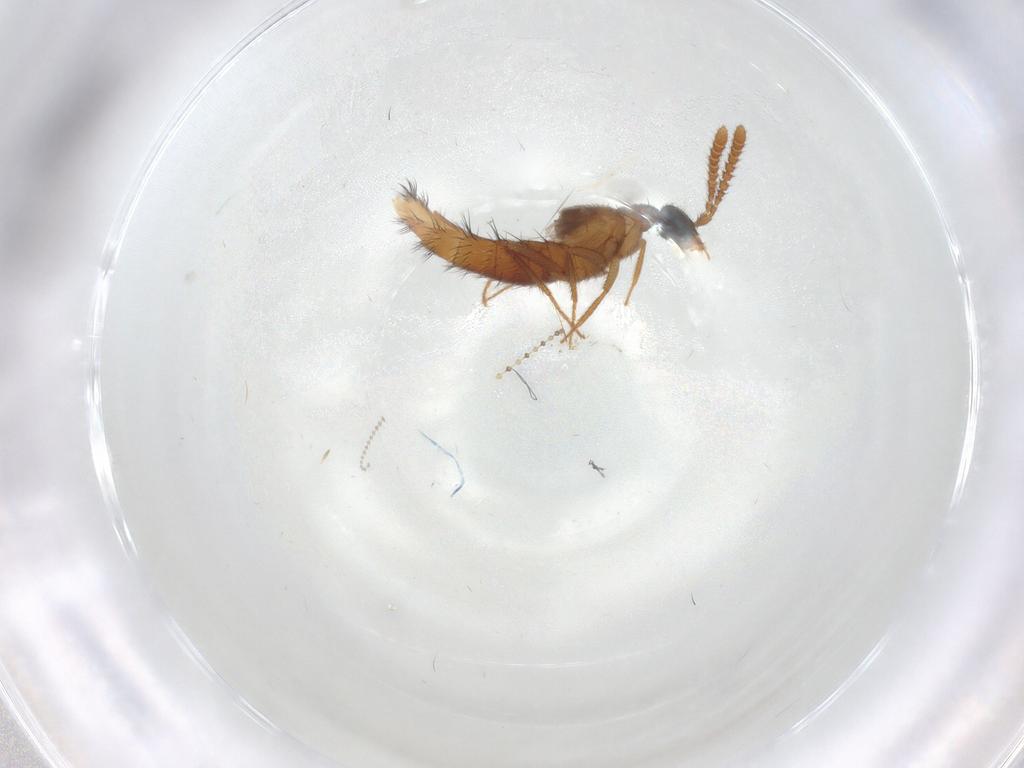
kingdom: Animalia
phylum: Arthropoda
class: Insecta
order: Coleoptera
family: Staphylinidae
